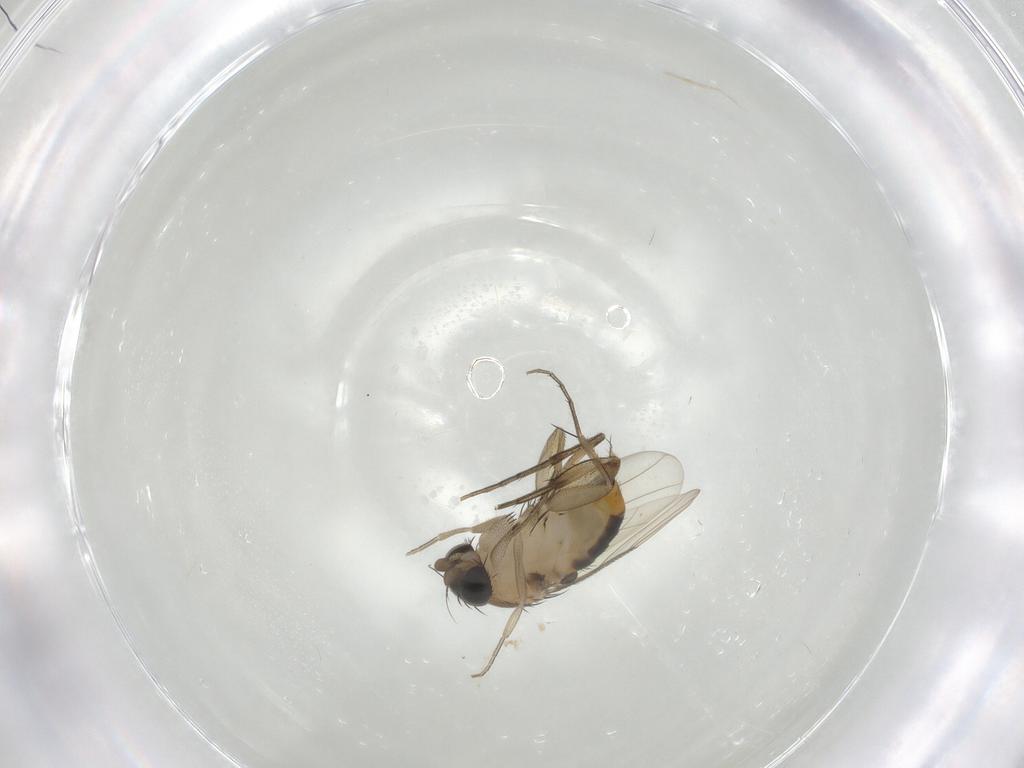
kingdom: Animalia
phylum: Arthropoda
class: Insecta
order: Diptera
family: Phoridae
